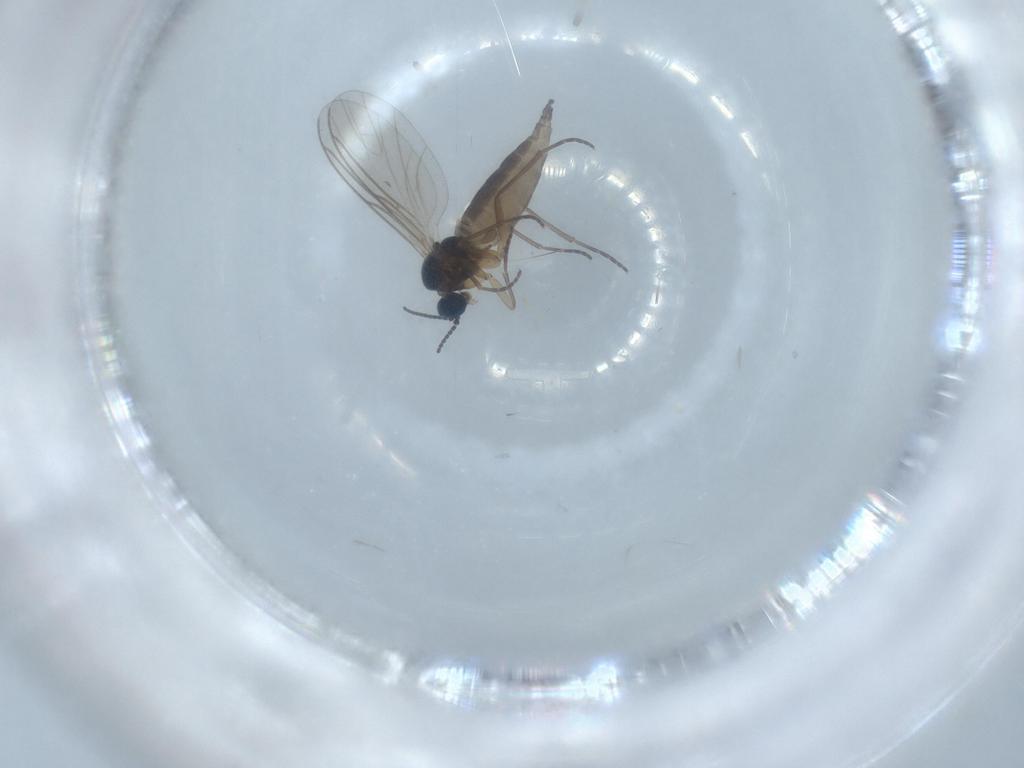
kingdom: Animalia
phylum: Arthropoda
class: Insecta
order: Diptera
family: Sciaridae
